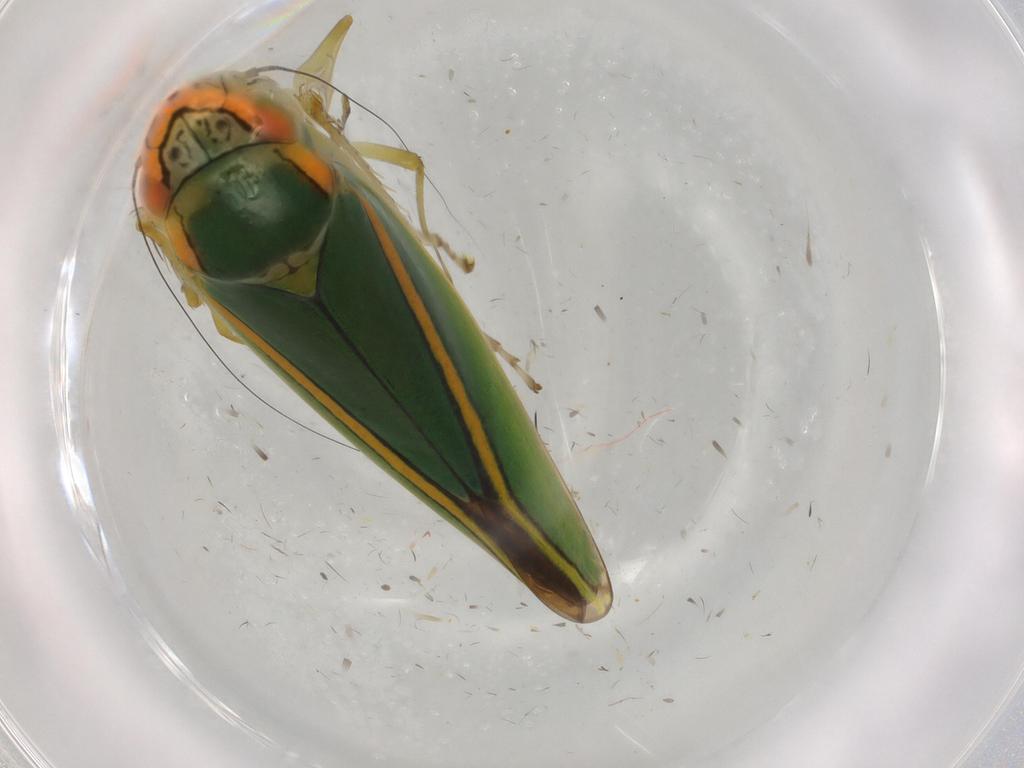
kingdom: Animalia
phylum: Arthropoda
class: Insecta
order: Hemiptera
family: Cicadellidae
